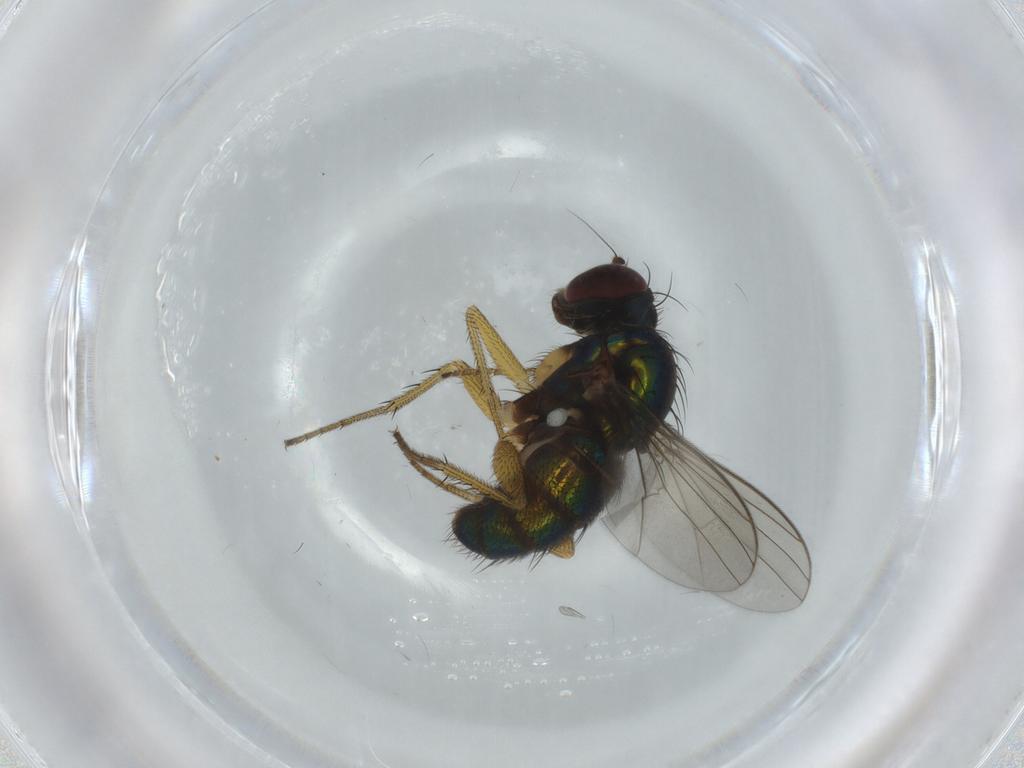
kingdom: Animalia
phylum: Arthropoda
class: Insecta
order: Diptera
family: Dolichopodidae
